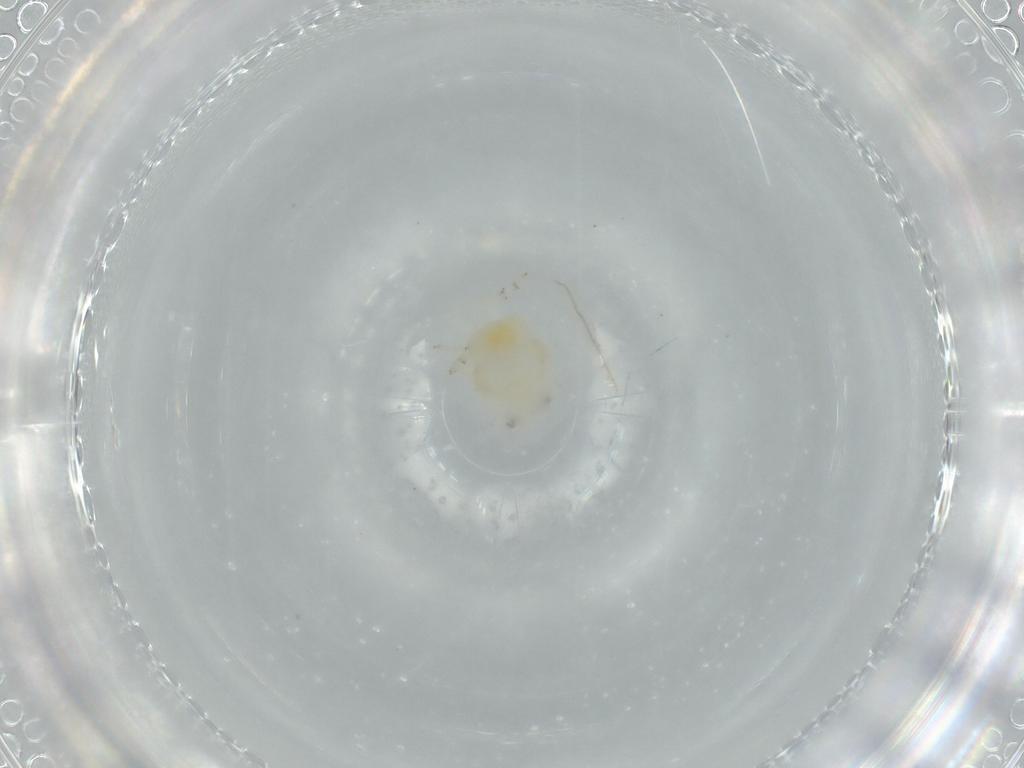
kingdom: Animalia
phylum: Arthropoda
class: Insecta
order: Hemiptera
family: Flatidae
